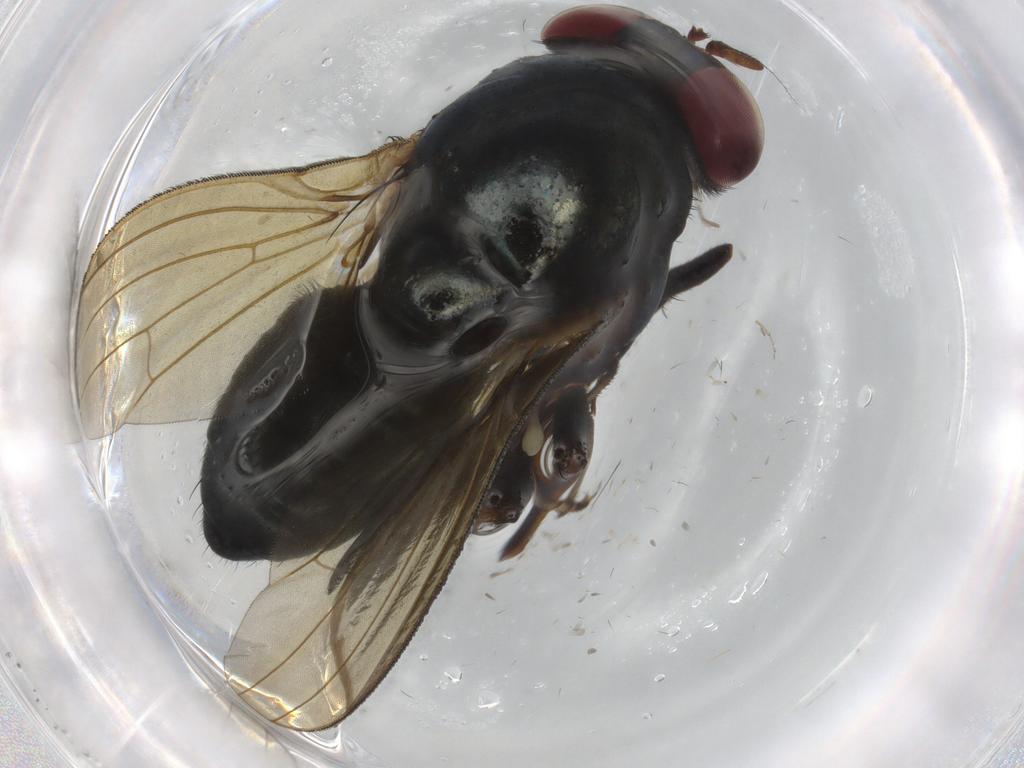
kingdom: Animalia
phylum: Arthropoda
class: Insecta
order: Diptera
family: Lauxaniidae
